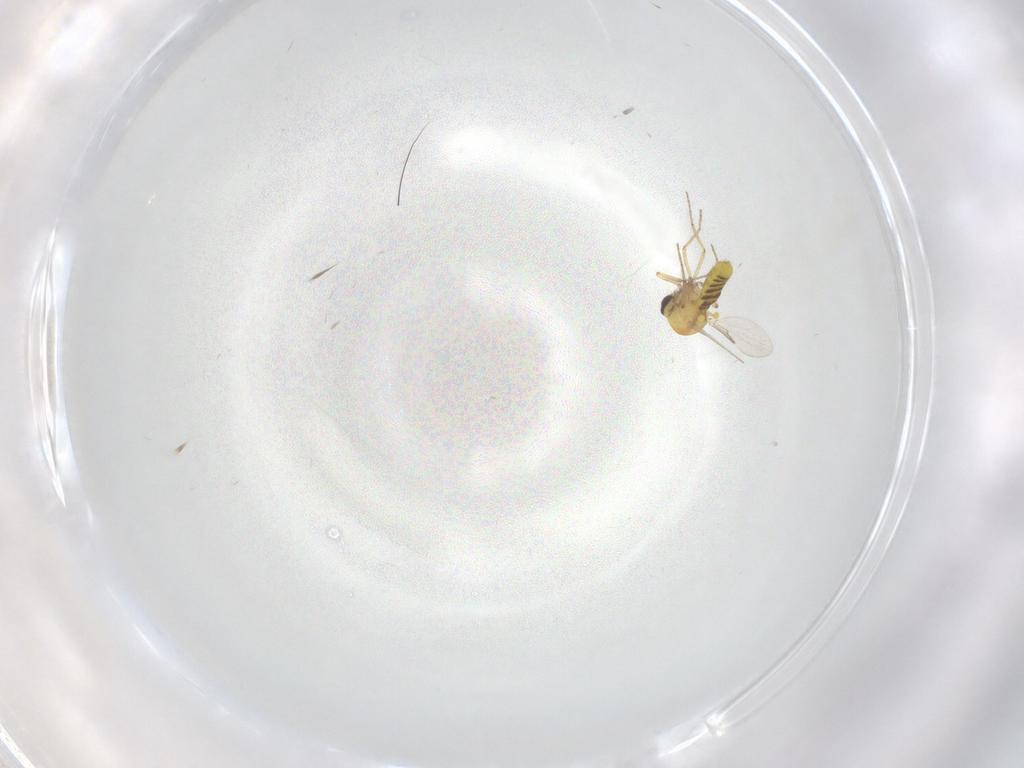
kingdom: Animalia
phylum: Arthropoda
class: Insecta
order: Diptera
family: Ceratopogonidae
